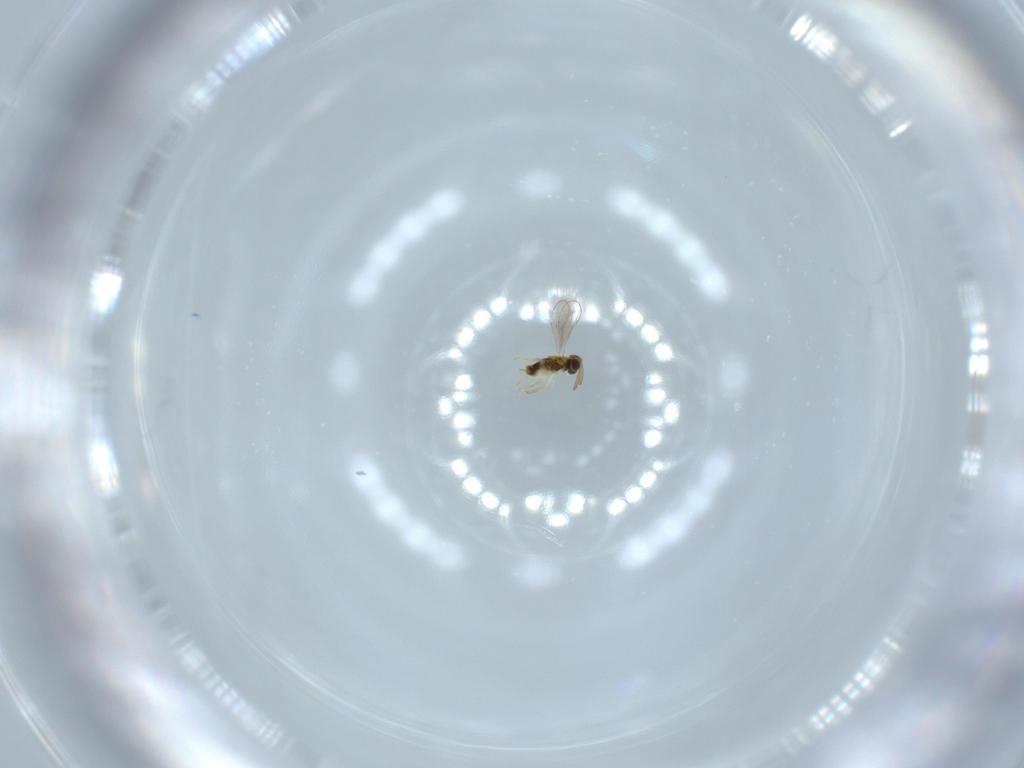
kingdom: Animalia
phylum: Arthropoda
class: Insecta
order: Hymenoptera
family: Aphelinidae
